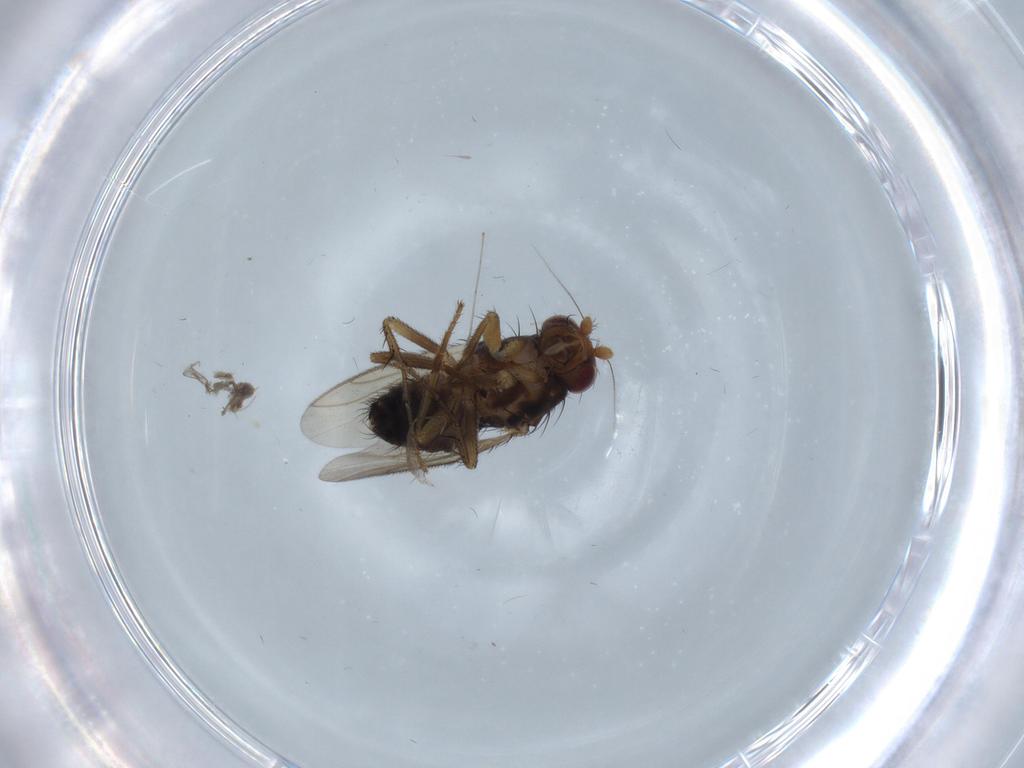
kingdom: Animalia
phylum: Arthropoda
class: Insecta
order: Diptera
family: Sphaeroceridae
